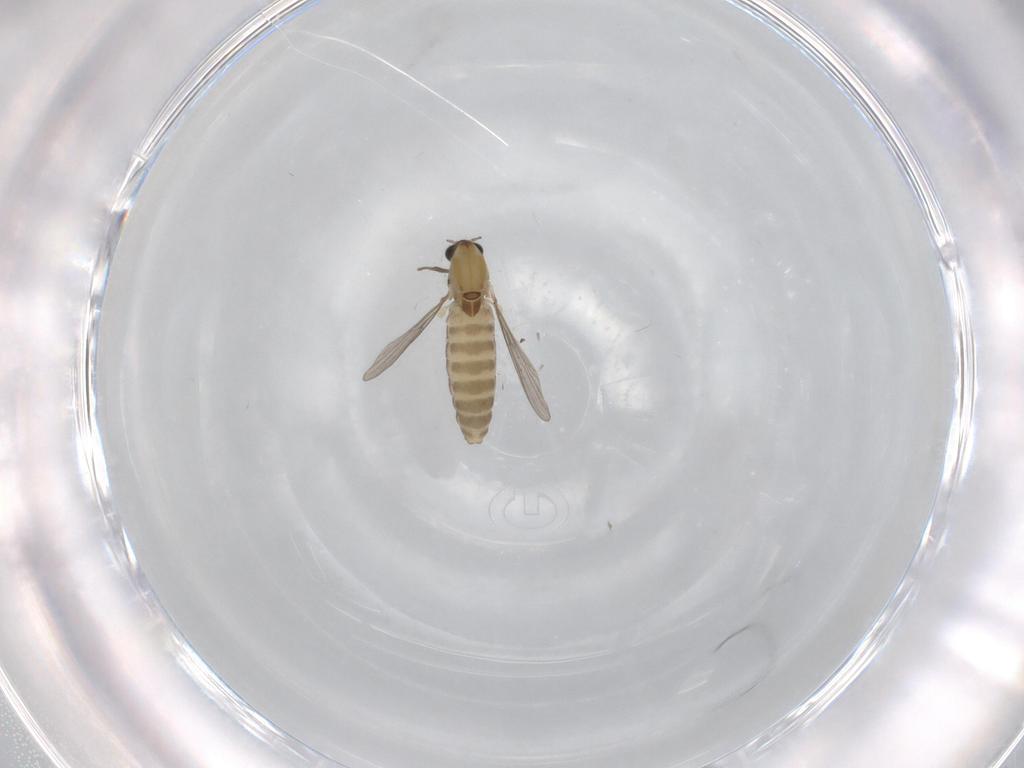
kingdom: Animalia
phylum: Arthropoda
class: Insecta
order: Diptera
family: Chironomidae
